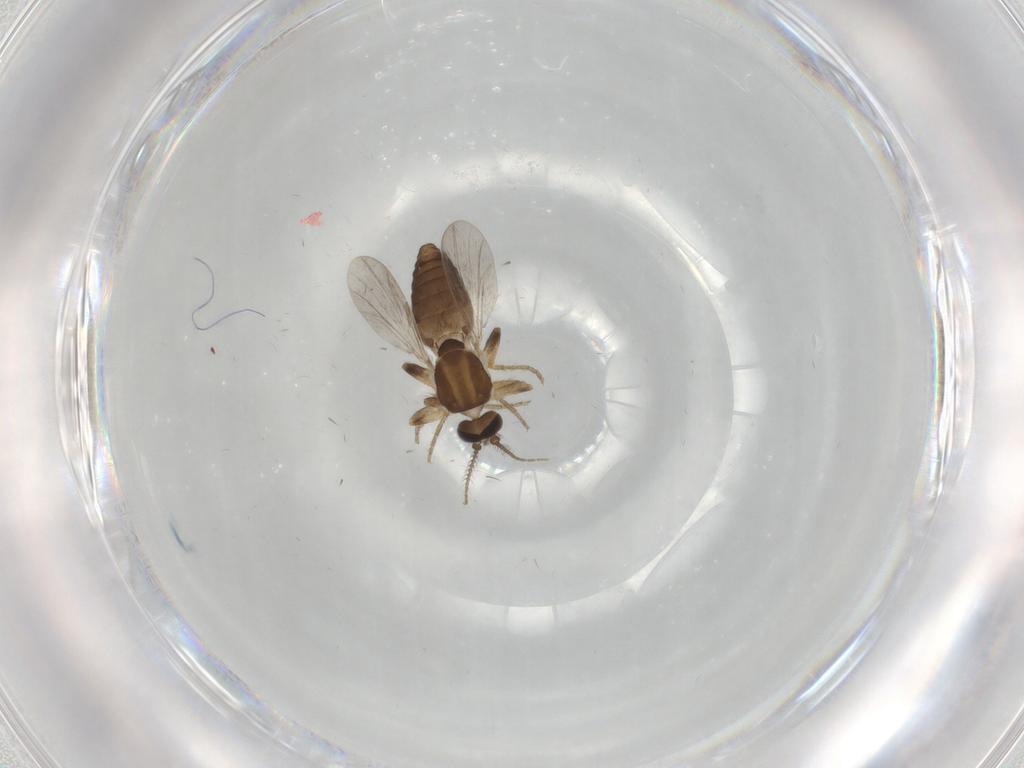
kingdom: Animalia
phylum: Arthropoda
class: Insecta
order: Diptera
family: Ceratopogonidae
